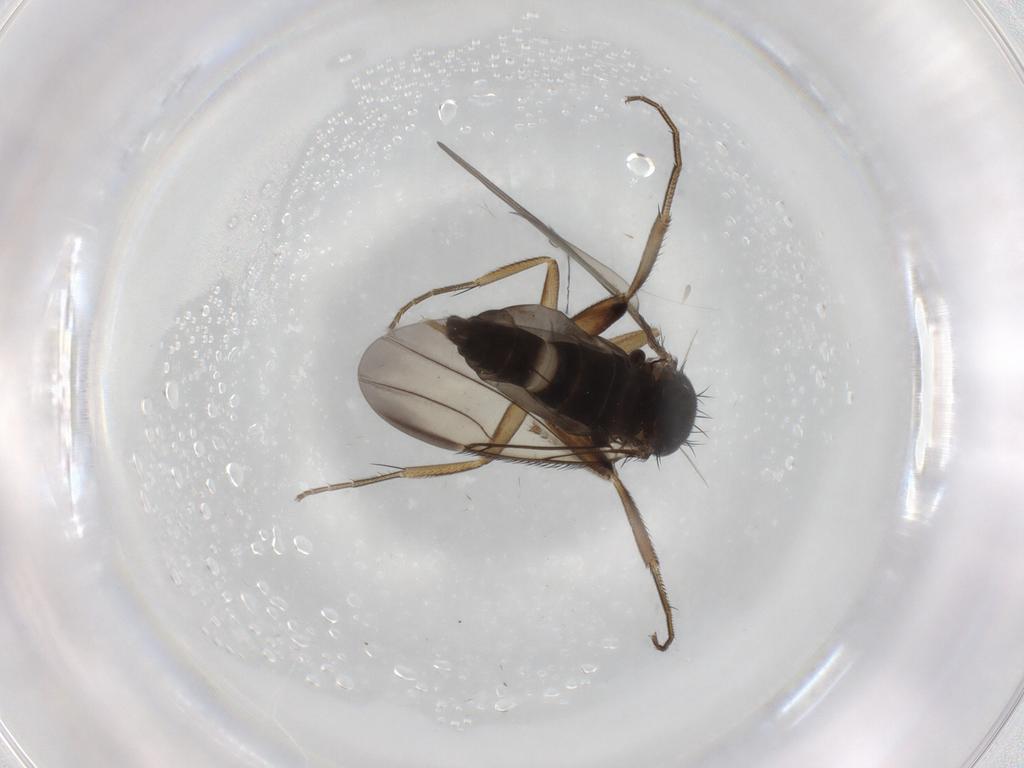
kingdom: Animalia
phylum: Arthropoda
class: Insecta
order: Diptera
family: Phoridae
